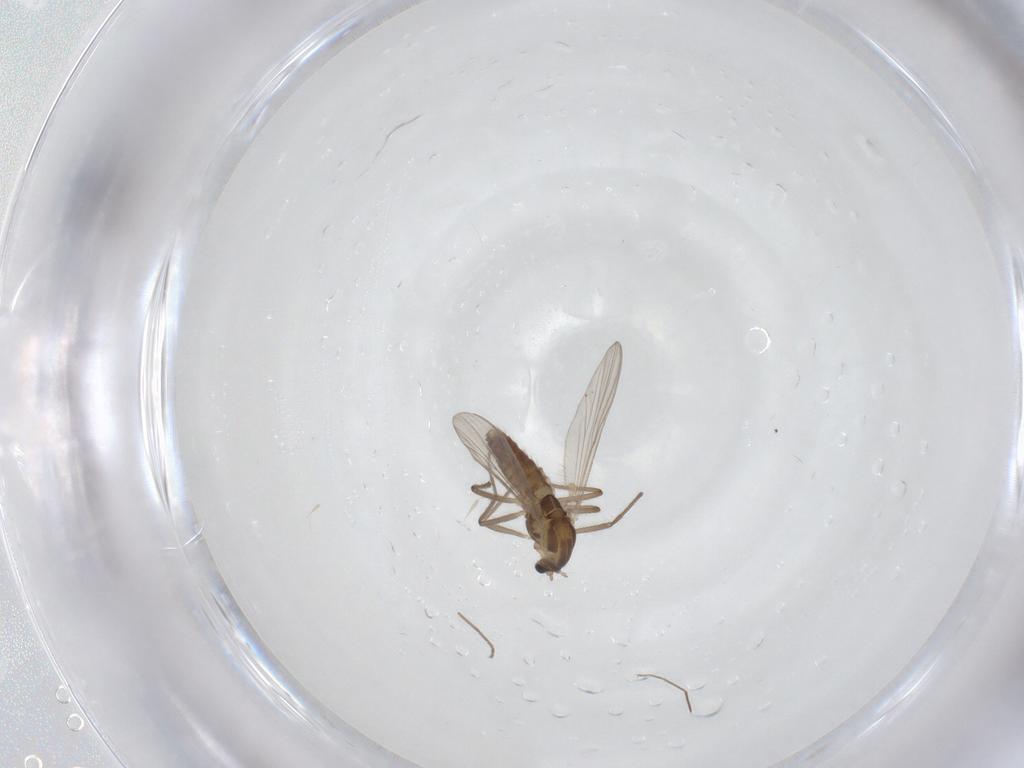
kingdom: Animalia
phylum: Arthropoda
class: Insecta
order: Diptera
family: Chironomidae
